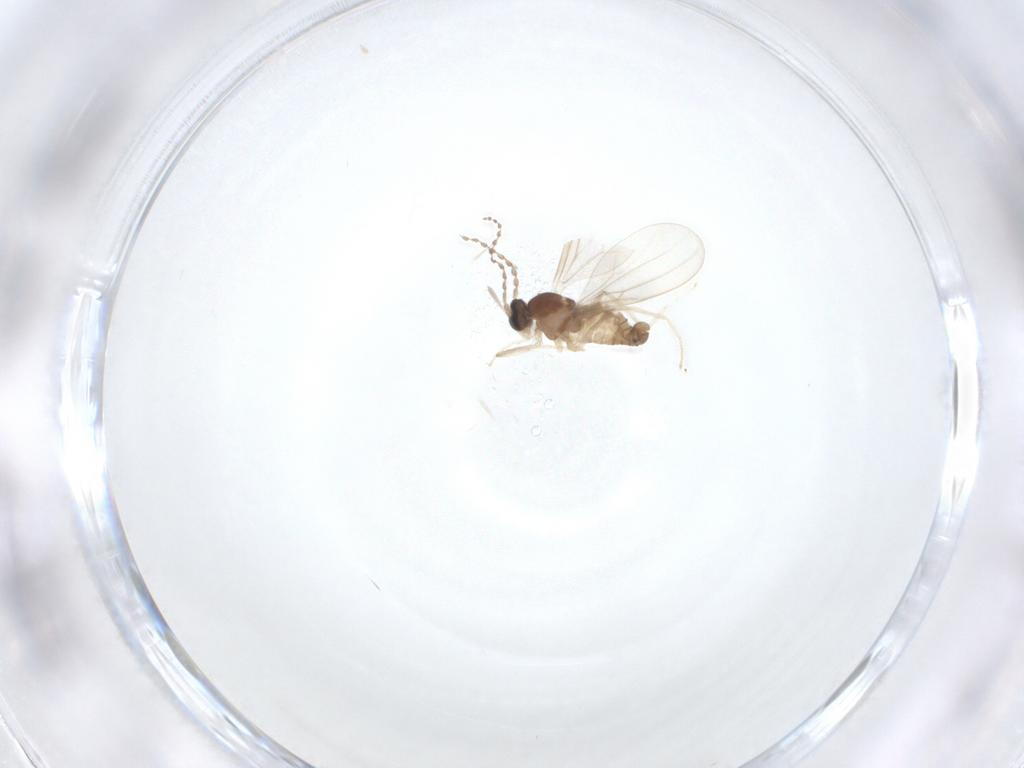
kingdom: Animalia
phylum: Arthropoda
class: Insecta
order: Diptera
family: Cecidomyiidae
